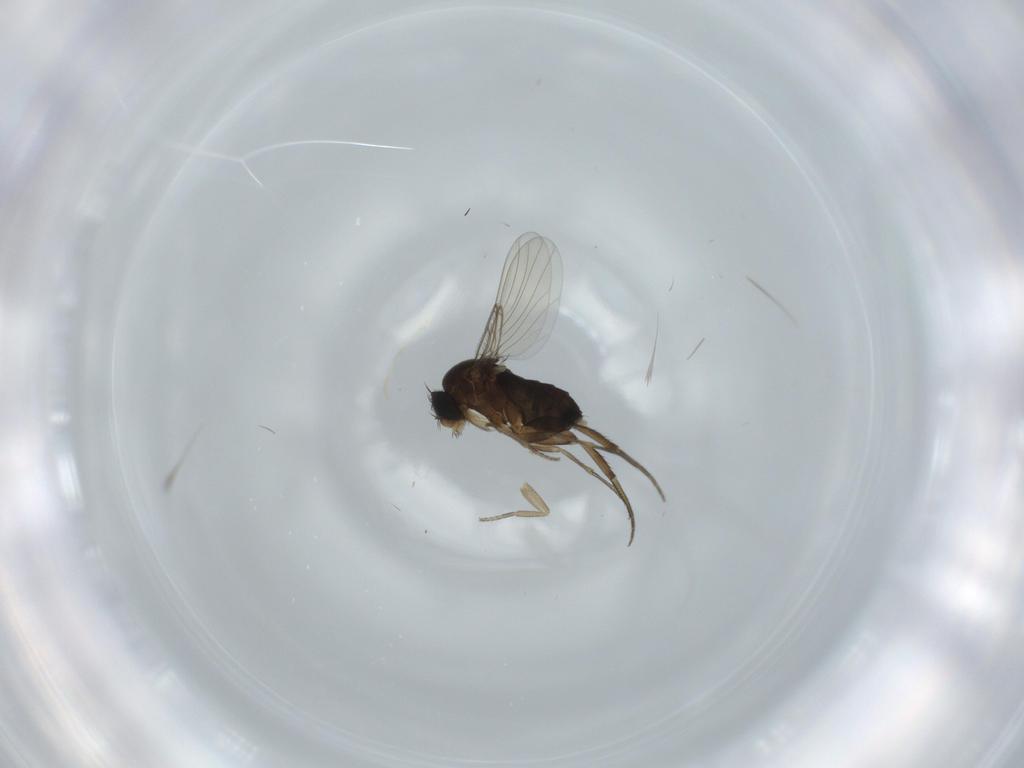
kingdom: Animalia
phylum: Arthropoda
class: Insecta
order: Diptera
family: Phoridae
